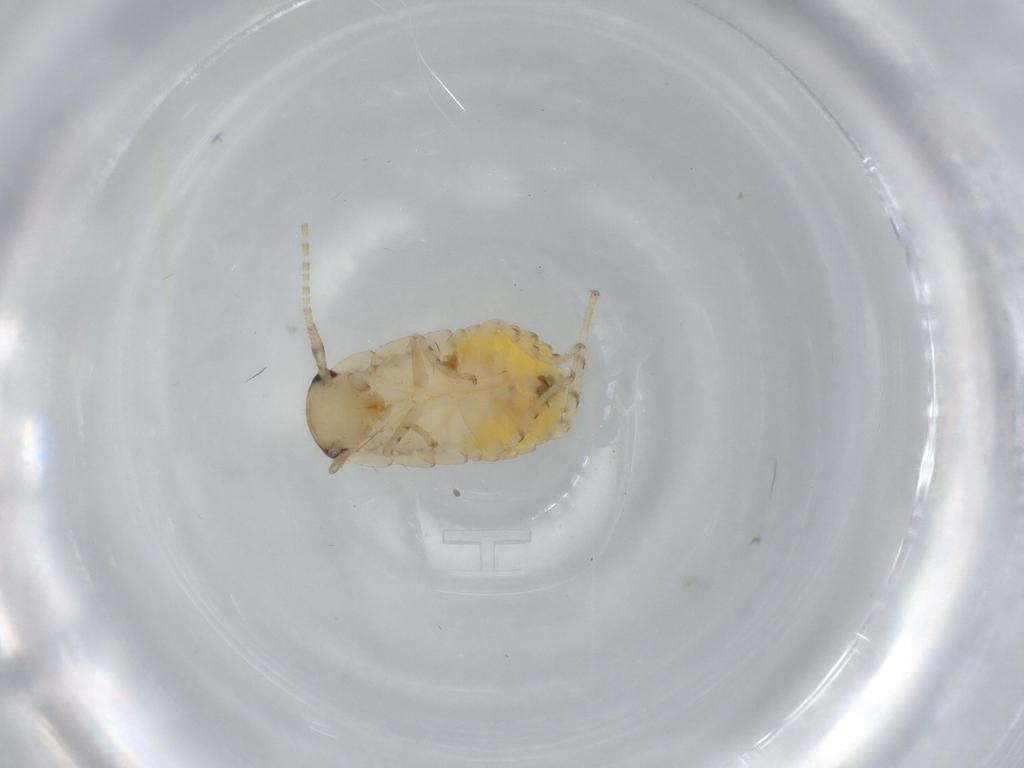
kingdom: Animalia
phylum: Arthropoda
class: Insecta
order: Blattodea
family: Ectobiidae
